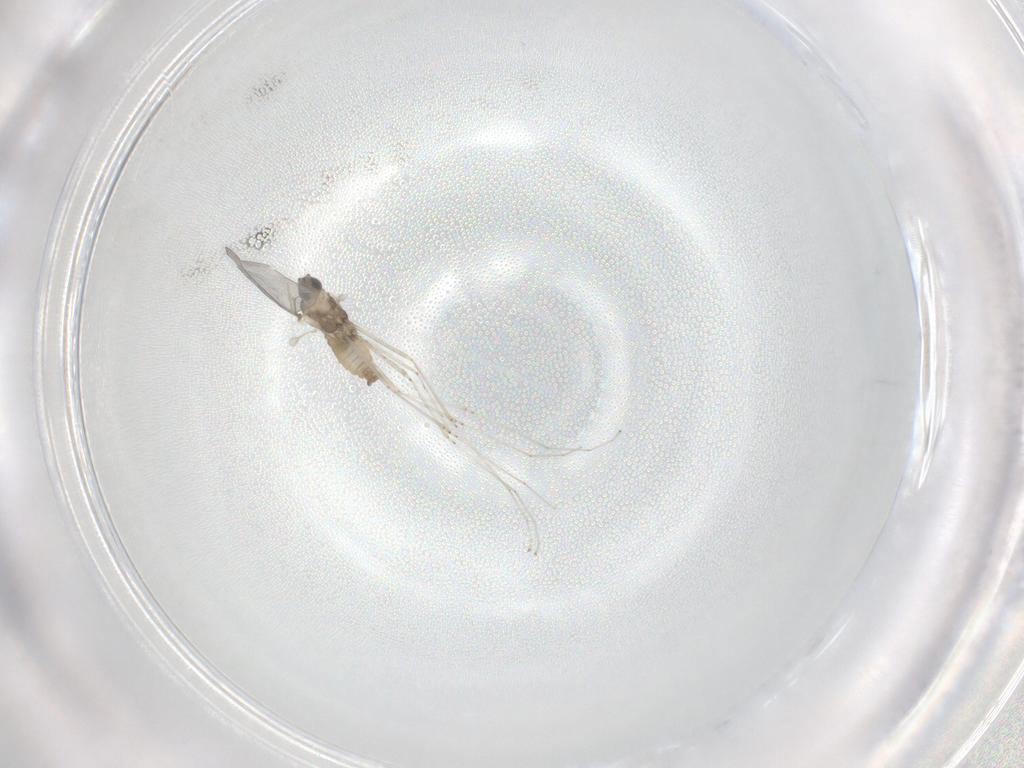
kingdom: Animalia
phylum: Arthropoda
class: Insecta
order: Diptera
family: Cecidomyiidae
